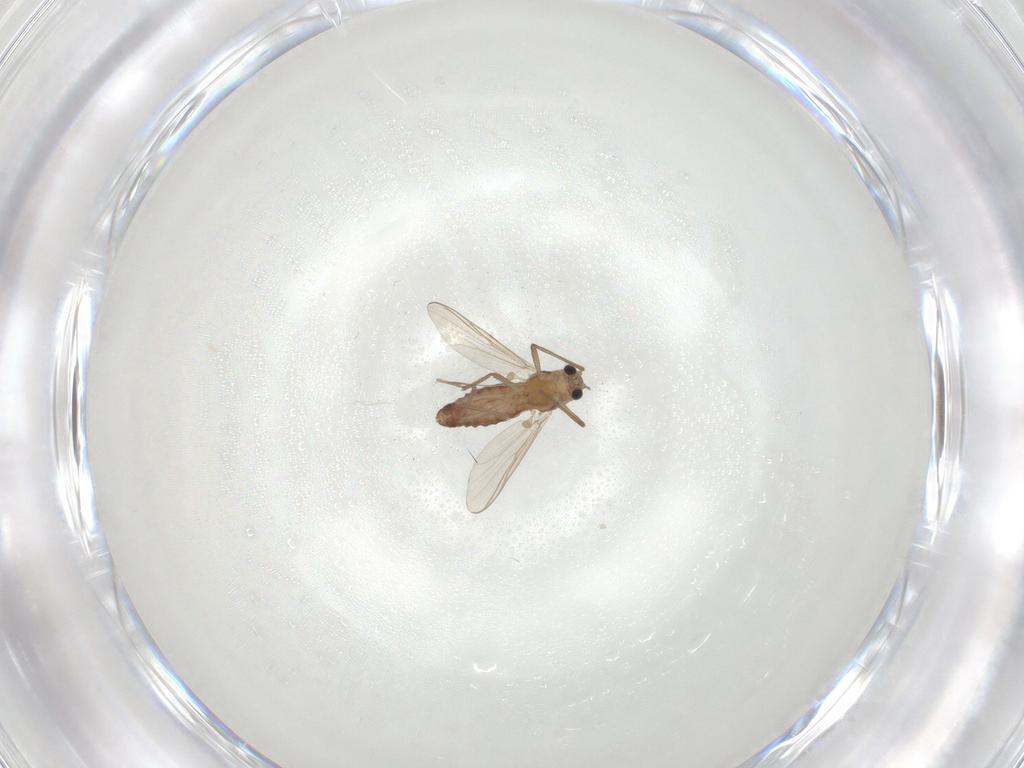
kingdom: Animalia
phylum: Arthropoda
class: Insecta
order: Diptera
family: Chironomidae
